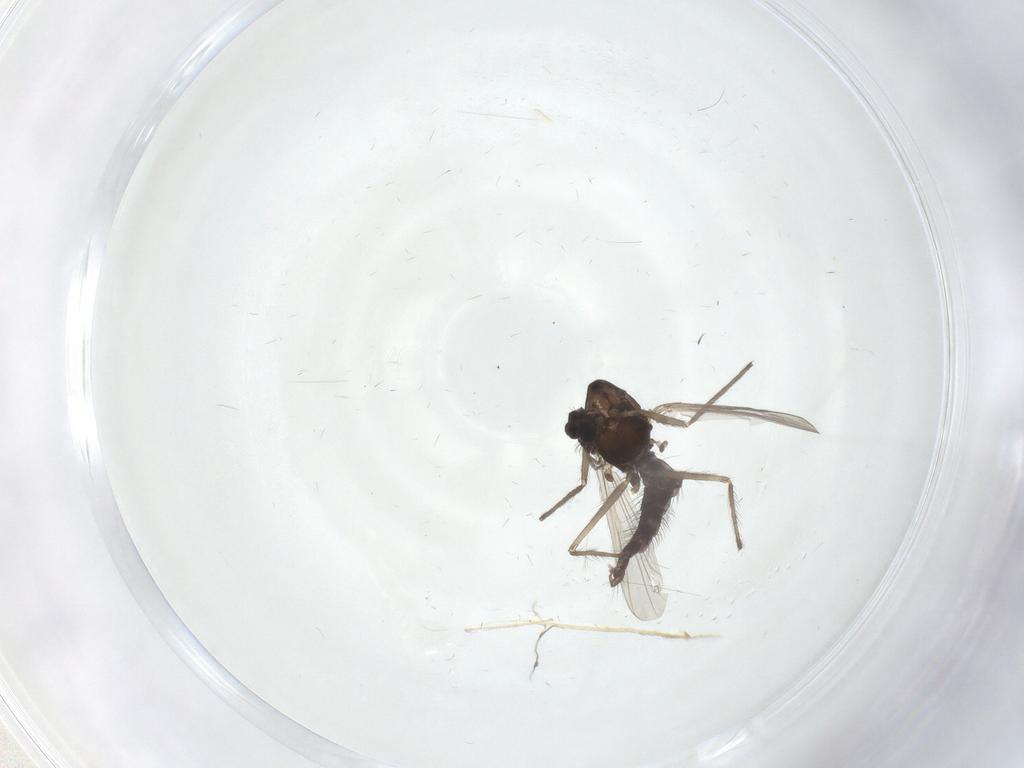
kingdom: Animalia
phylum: Arthropoda
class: Insecta
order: Diptera
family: Chironomidae
